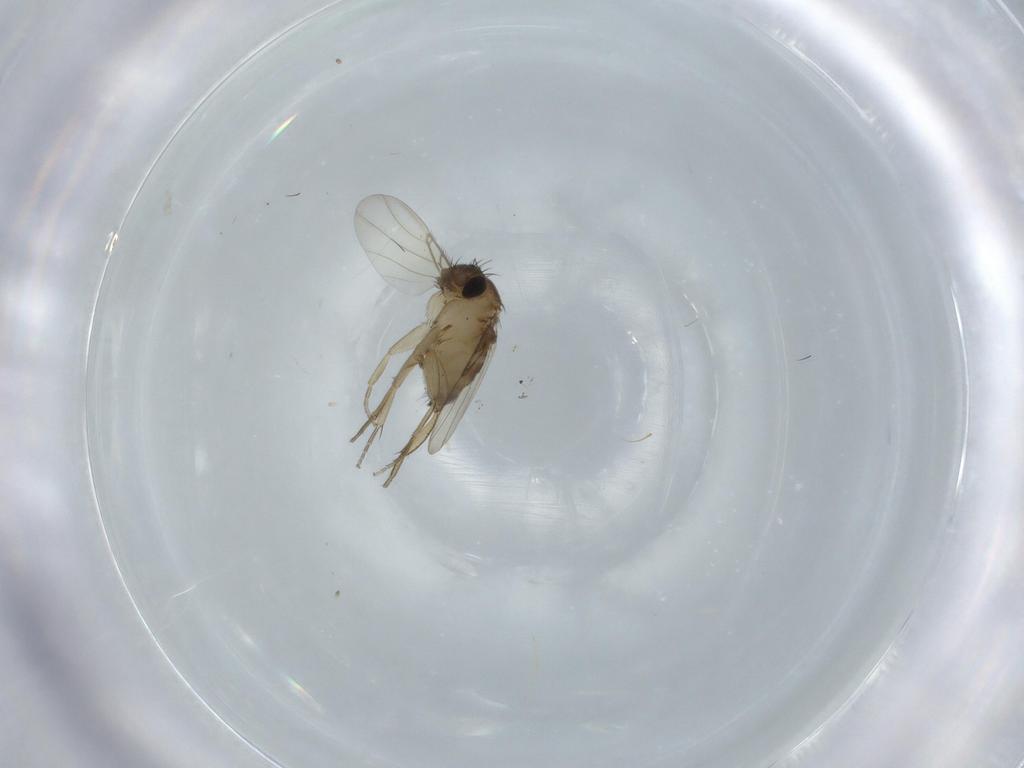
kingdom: Animalia
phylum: Arthropoda
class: Insecta
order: Diptera
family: Phoridae
